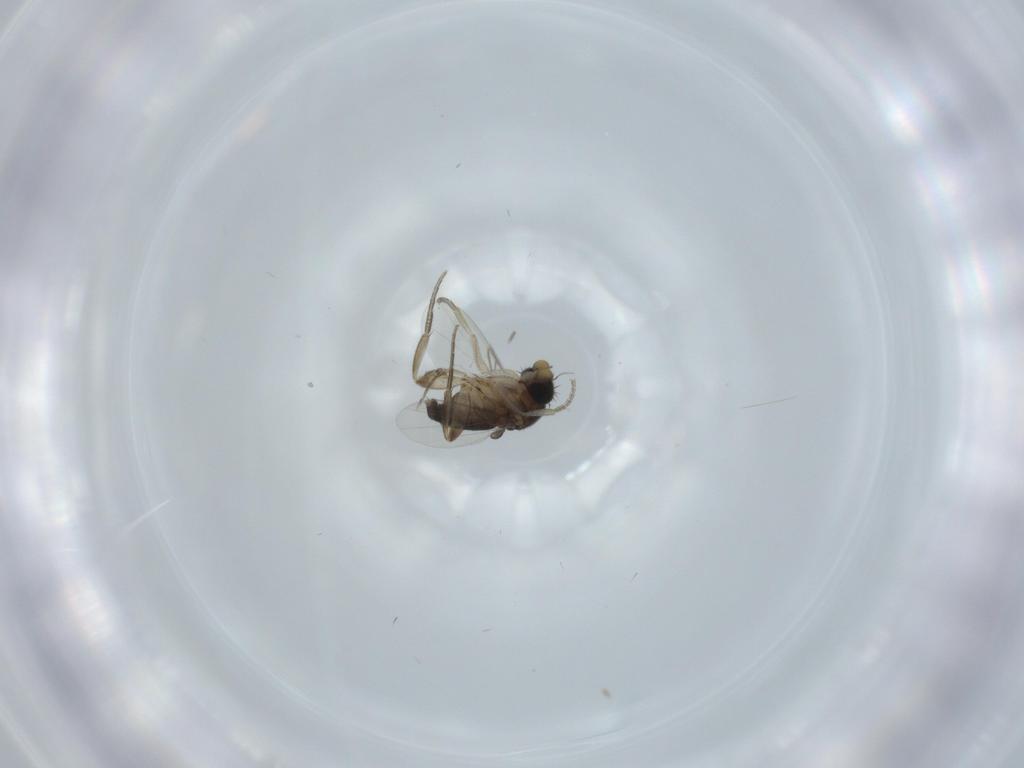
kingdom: Animalia
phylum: Arthropoda
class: Insecta
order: Diptera
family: Phoridae
